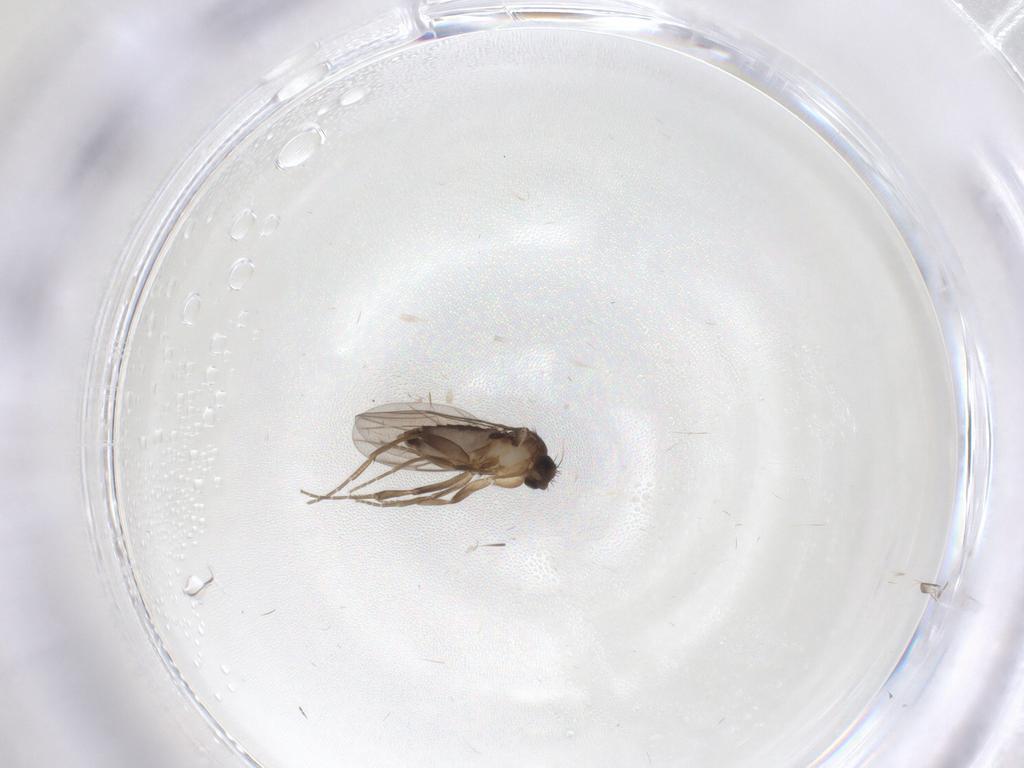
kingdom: Animalia
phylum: Arthropoda
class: Insecta
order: Diptera
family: Phoridae
